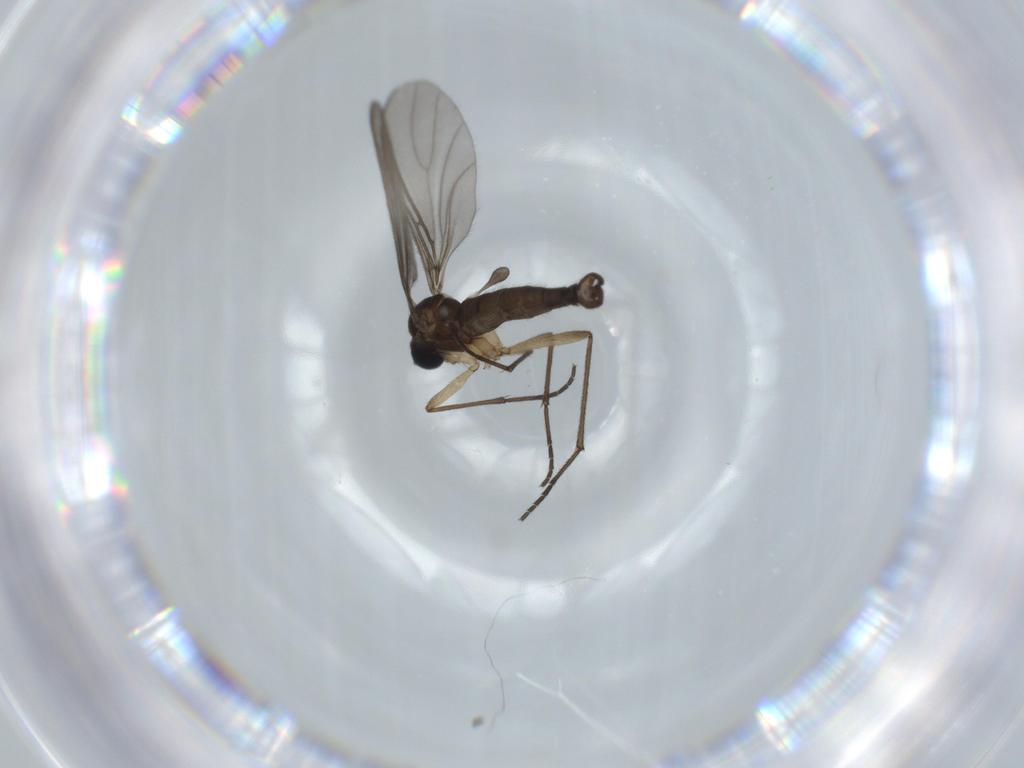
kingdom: Animalia
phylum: Arthropoda
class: Insecta
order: Diptera
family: Sciaridae
